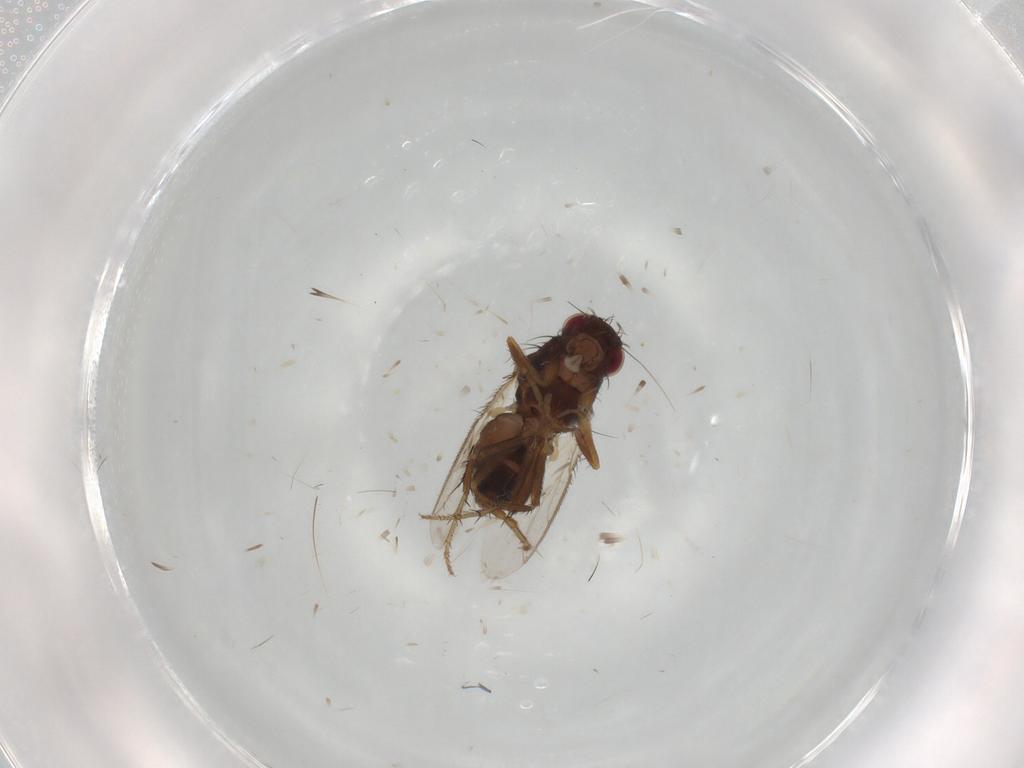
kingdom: Animalia
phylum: Arthropoda
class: Insecta
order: Diptera
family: Sphaeroceridae
